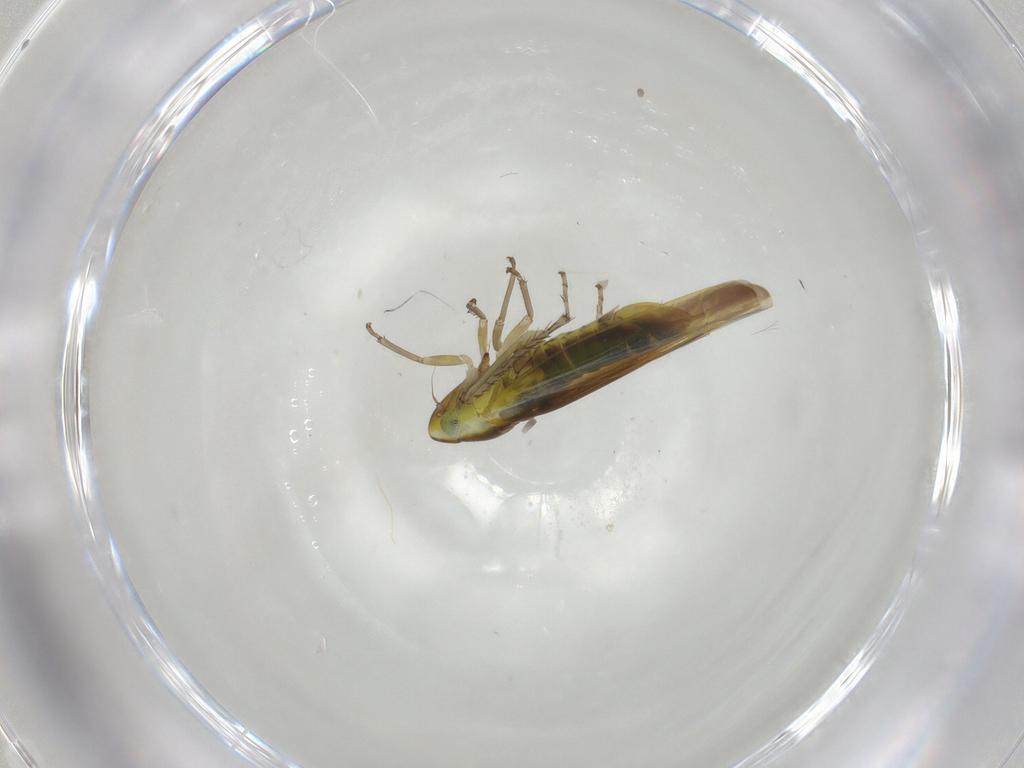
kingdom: Animalia
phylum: Arthropoda
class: Insecta
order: Hemiptera
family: Cicadellidae
